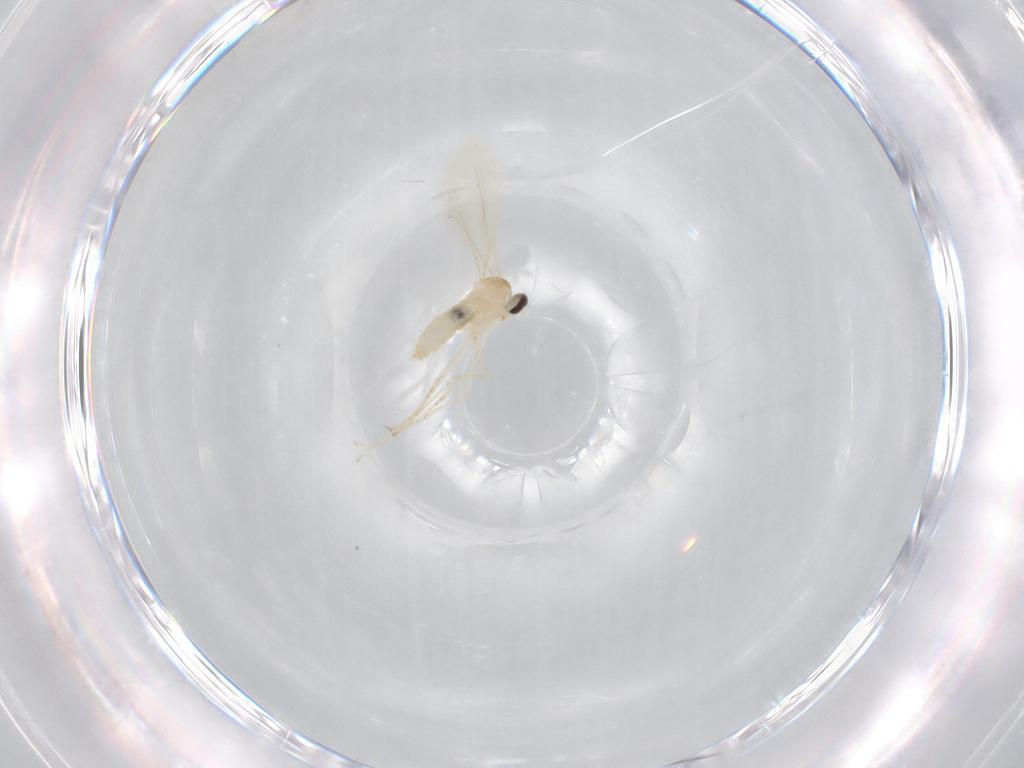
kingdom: Animalia
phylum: Arthropoda
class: Insecta
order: Diptera
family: Cecidomyiidae
